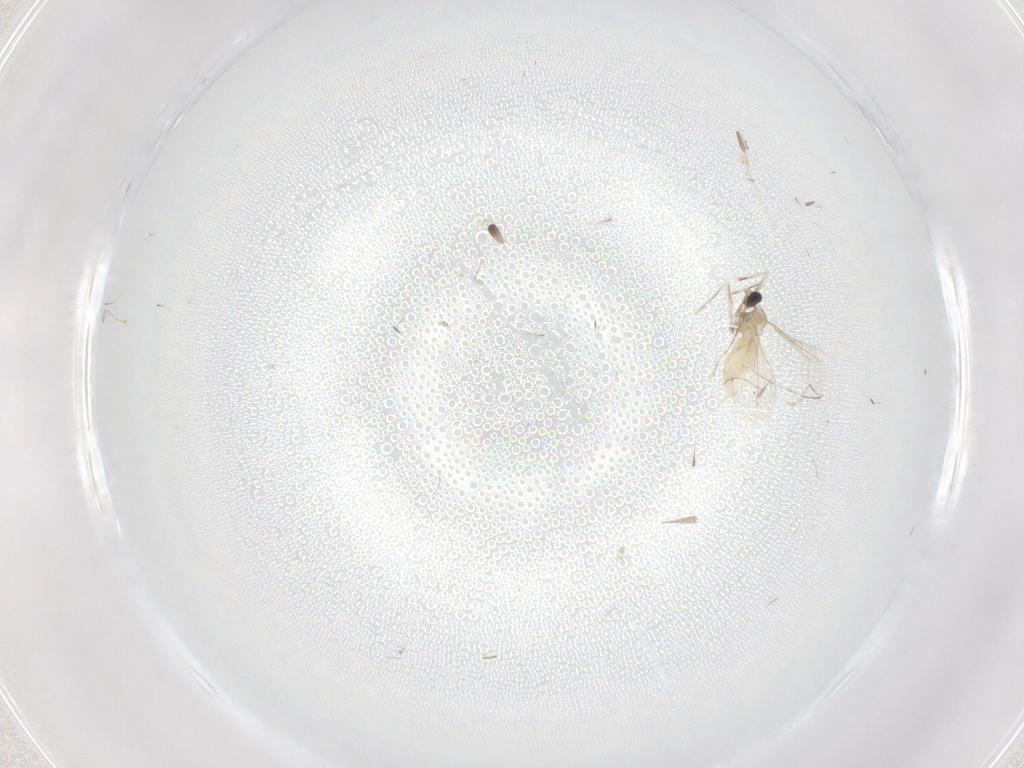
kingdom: Animalia
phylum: Arthropoda
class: Insecta
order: Diptera
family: Cecidomyiidae
